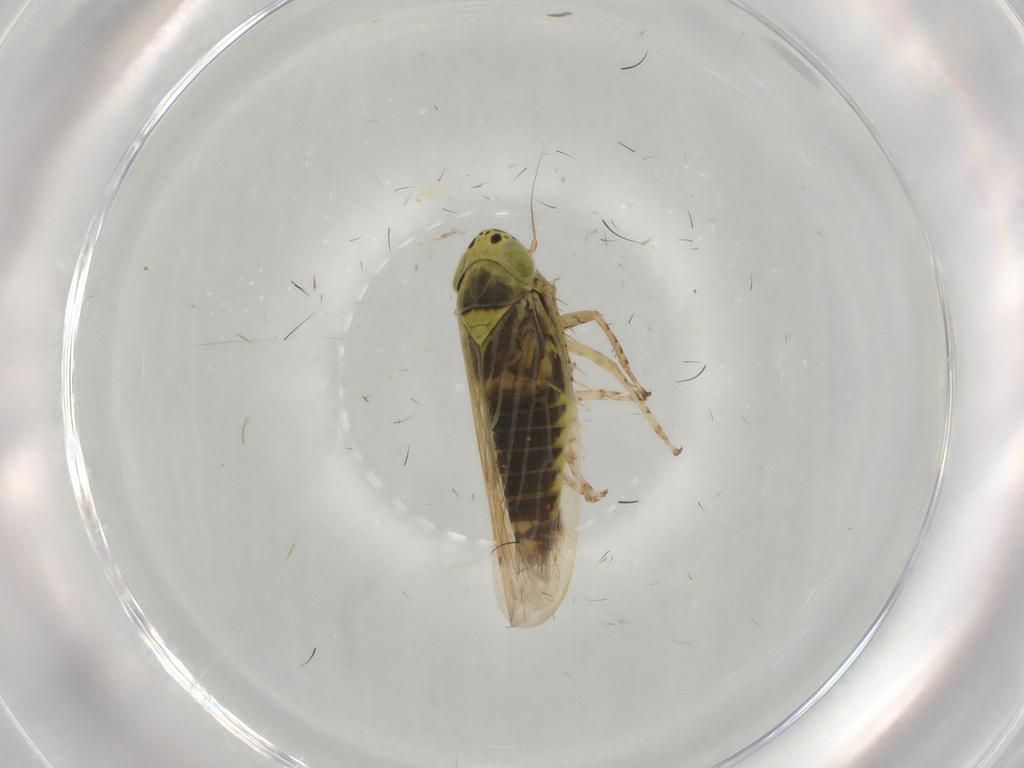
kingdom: Animalia
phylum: Arthropoda
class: Insecta
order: Hemiptera
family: Cicadellidae
